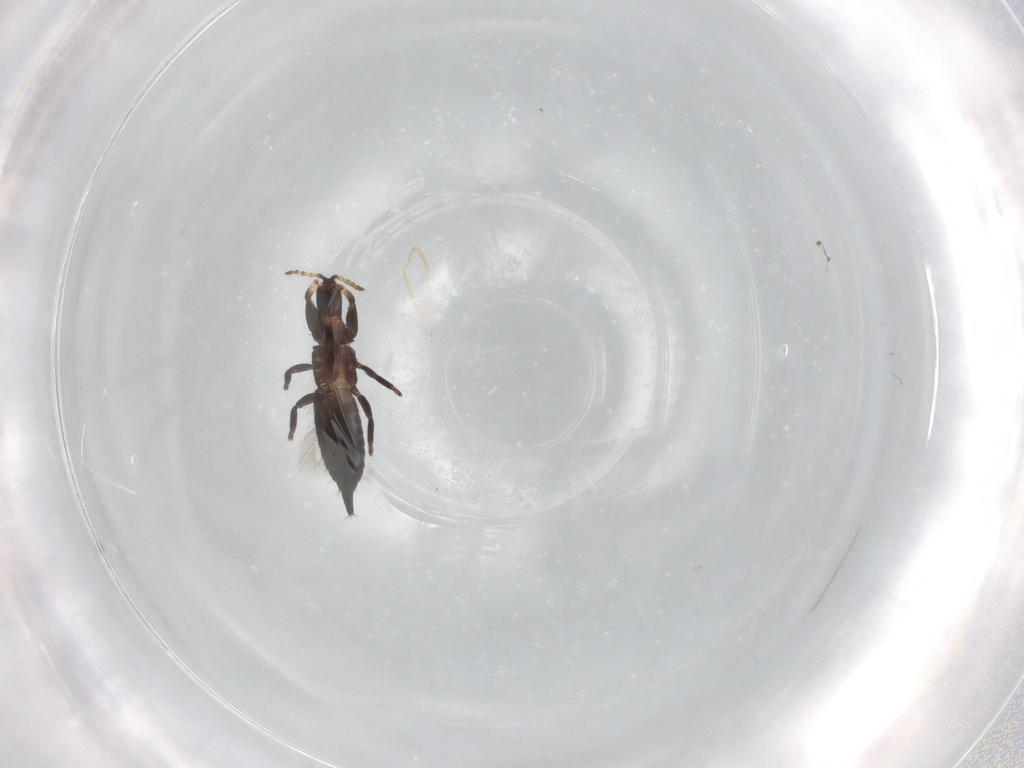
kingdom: Animalia
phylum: Arthropoda
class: Insecta
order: Thysanoptera
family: Phlaeothripidae
